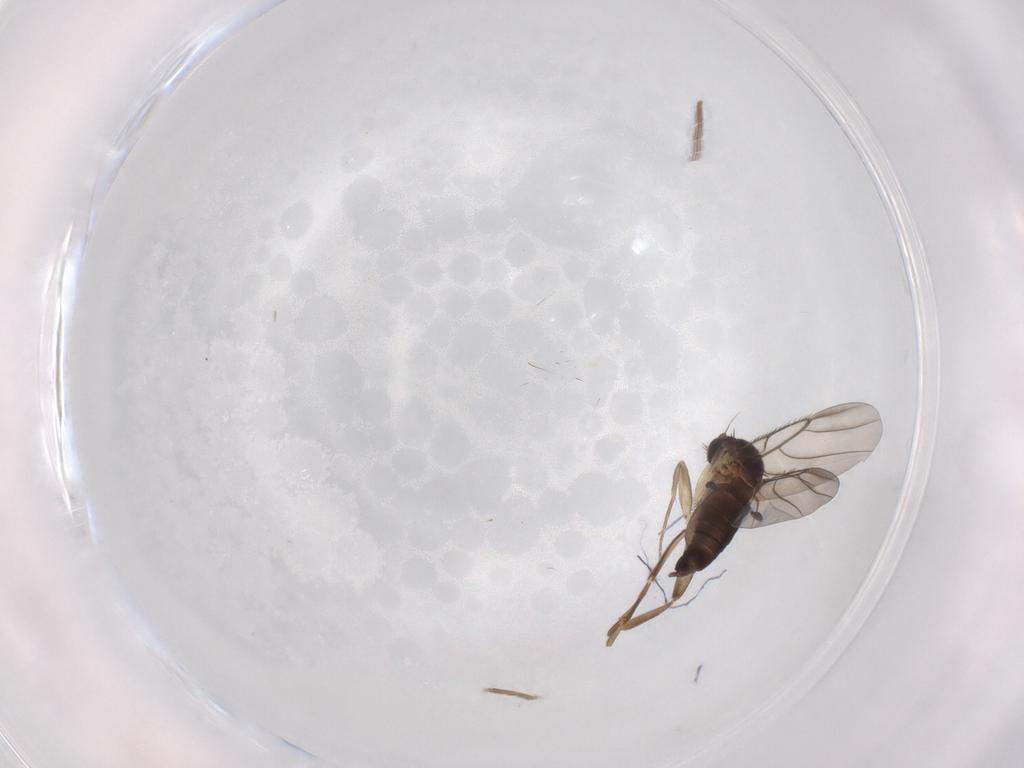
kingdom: Animalia
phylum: Arthropoda
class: Insecta
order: Diptera
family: Phoridae
